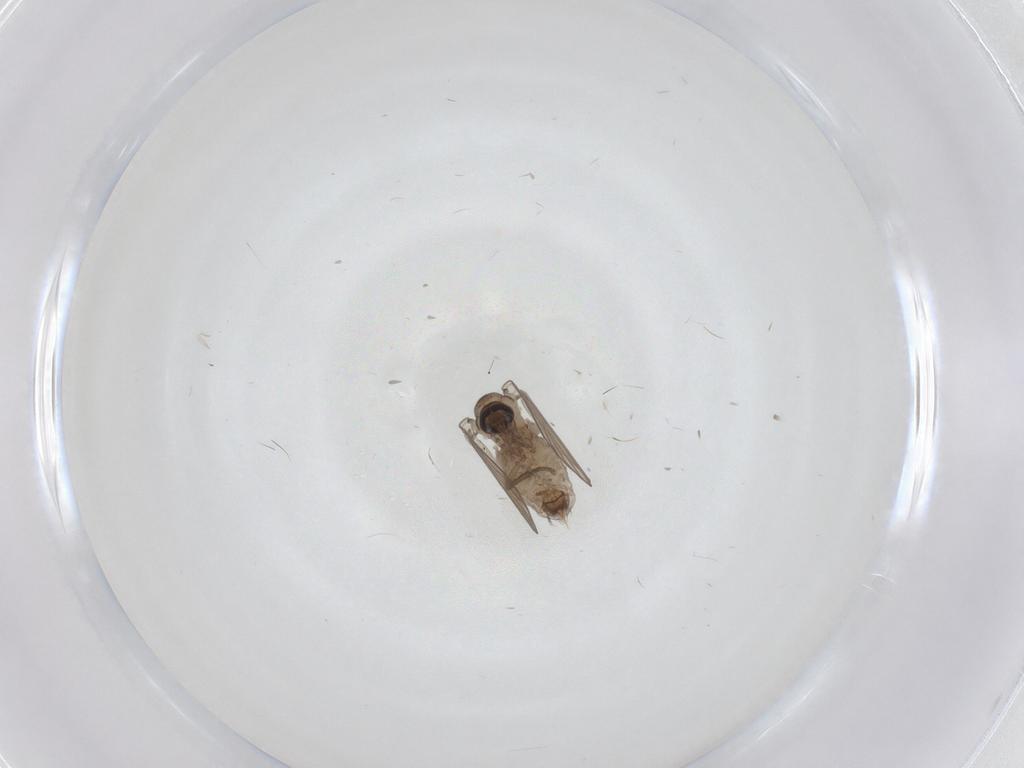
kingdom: Animalia
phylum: Arthropoda
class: Insecta
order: Diptera
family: Psychodidae
